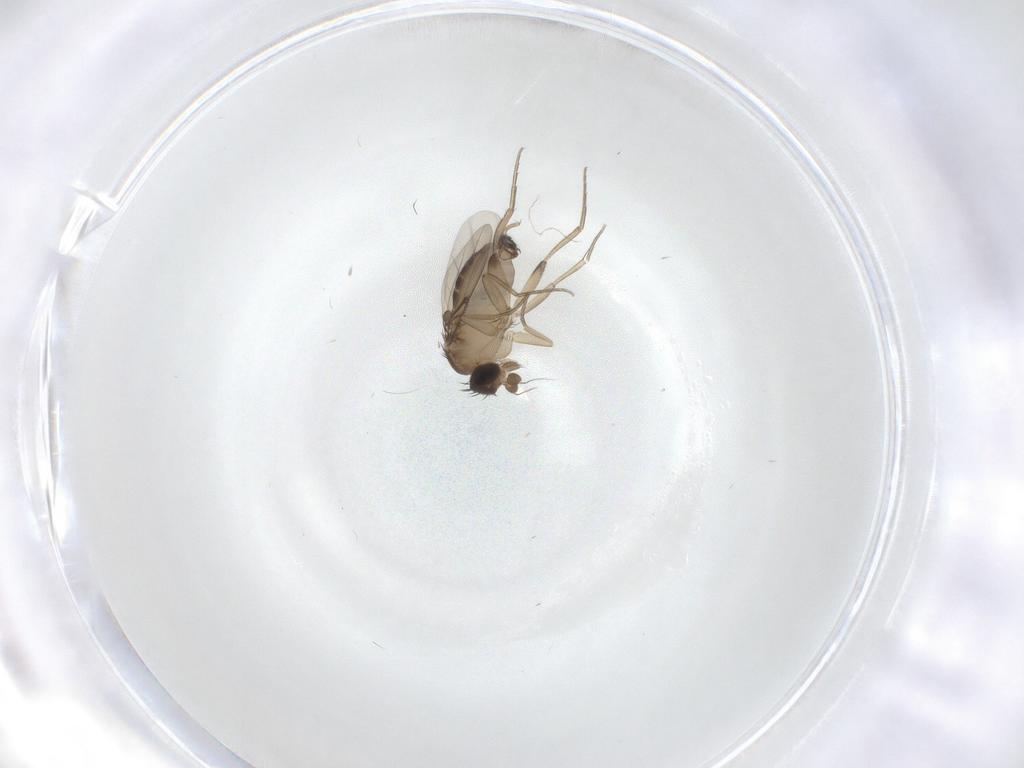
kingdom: Animalia
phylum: Arthropoda
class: Insecta
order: Diptera
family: Phoridae
